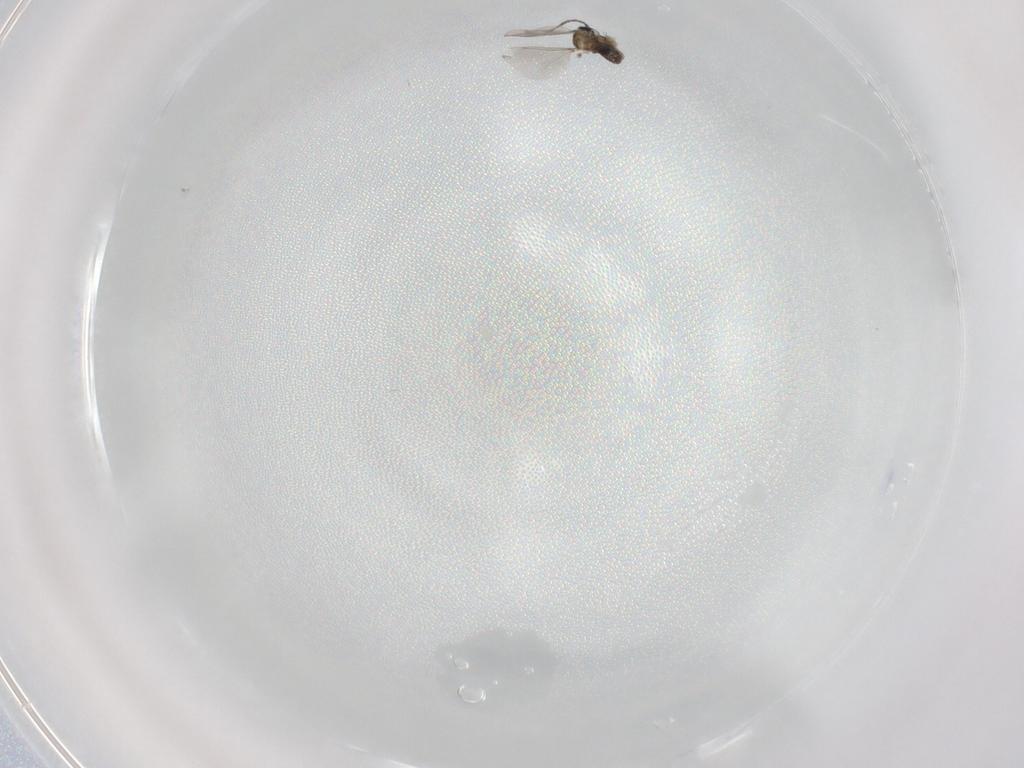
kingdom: Animalia
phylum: Arthropoda
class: Insecta
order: Diptera
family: Cecidomyiidae
